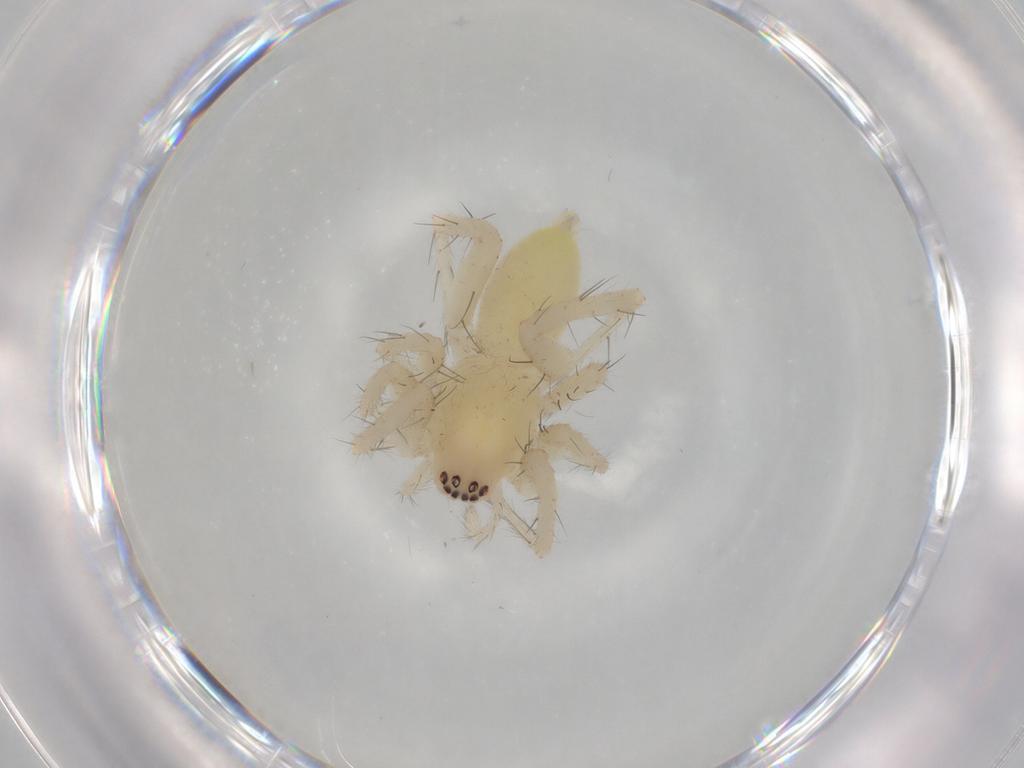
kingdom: Animalia
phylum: Arthropoda
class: Arachnida
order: Araneae
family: Anyphaenidae
